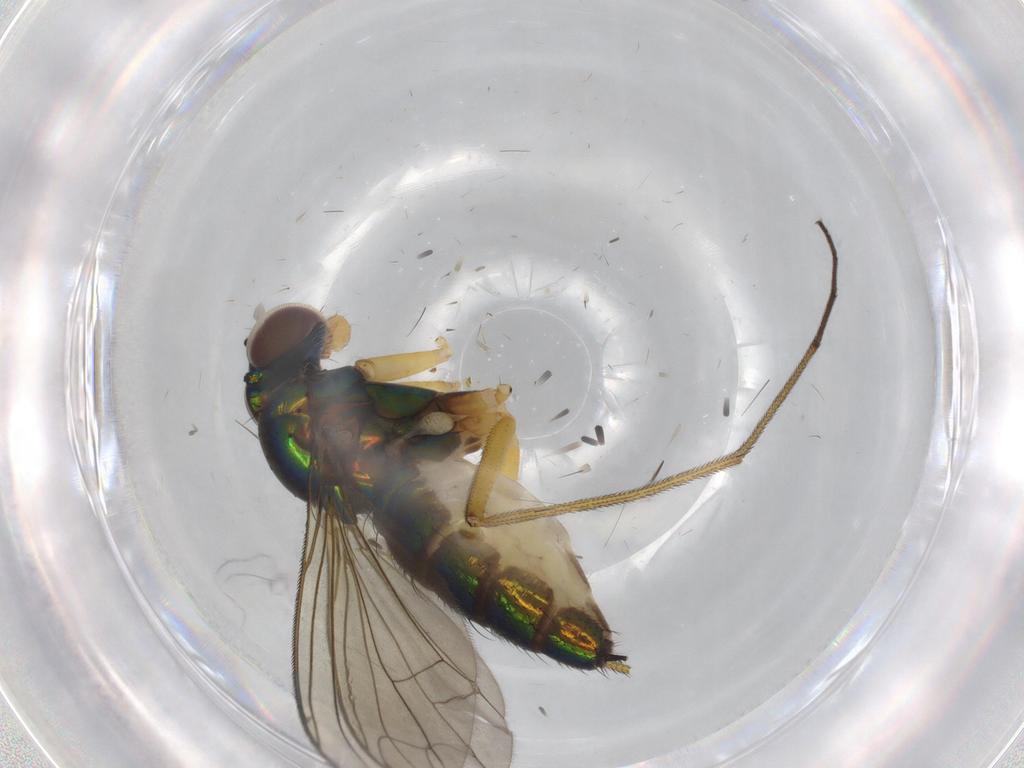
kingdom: Animalia
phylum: Arthropoda
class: Insecta
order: Diptera
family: Dolichopodidae
